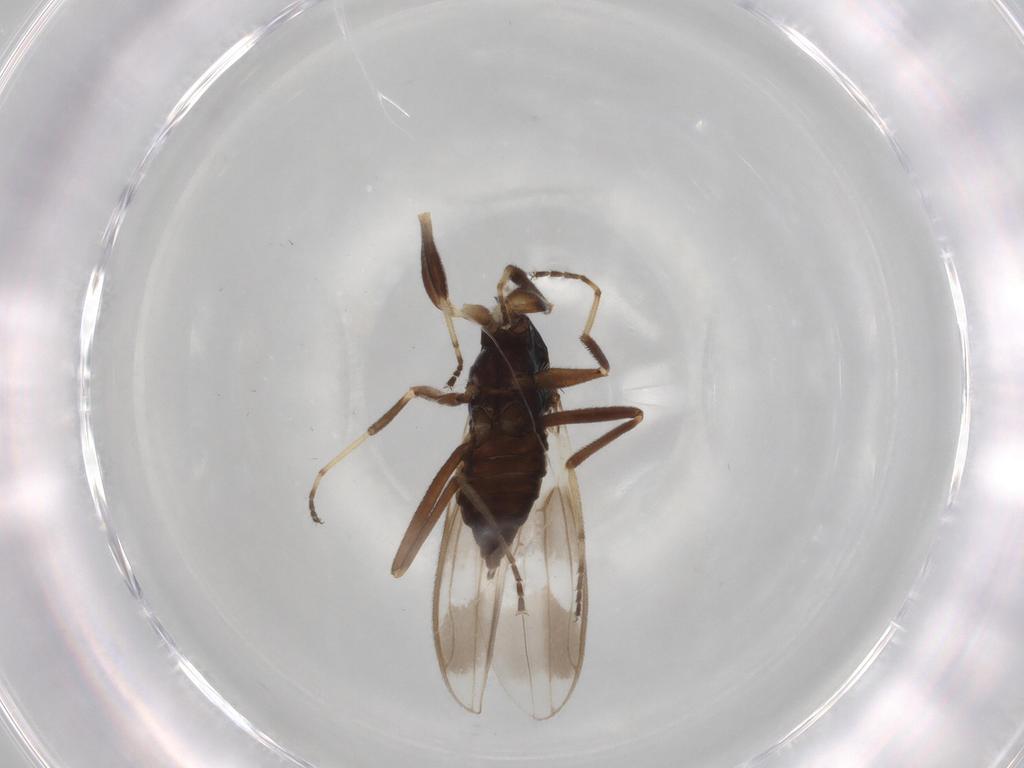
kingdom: Animalia
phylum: Arthropoda
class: Insecta
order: Diptera
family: Hybotidae
